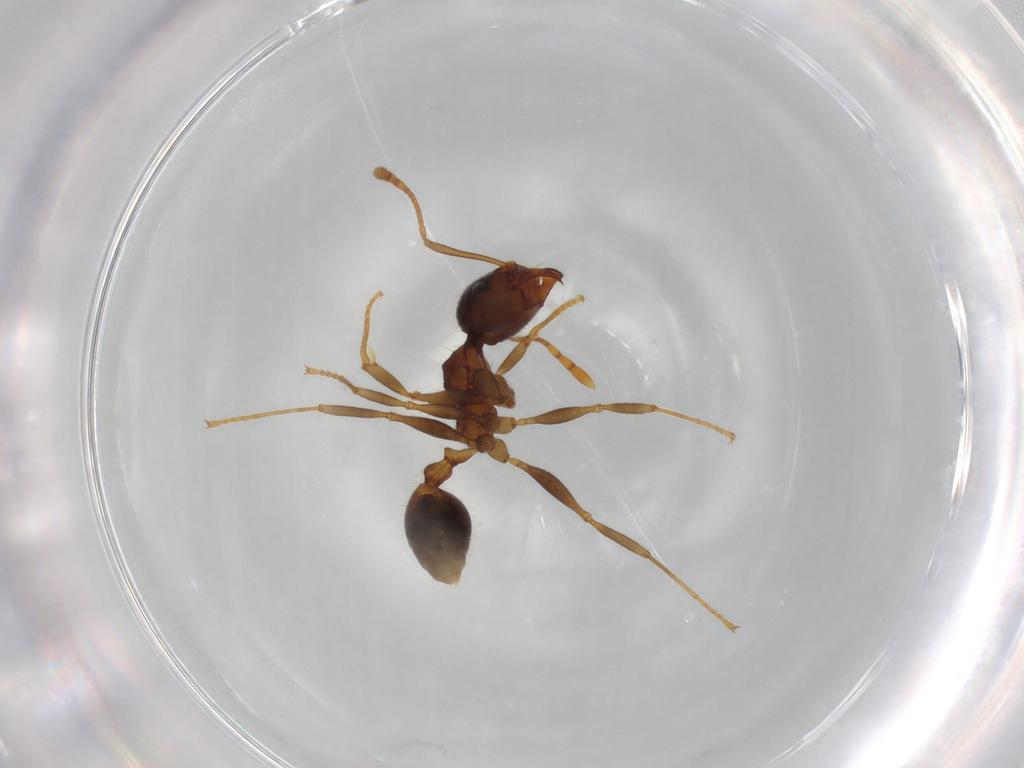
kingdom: Animalia
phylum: Arthropoda
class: Insecta
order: Hymenoptera
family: Formicidae
